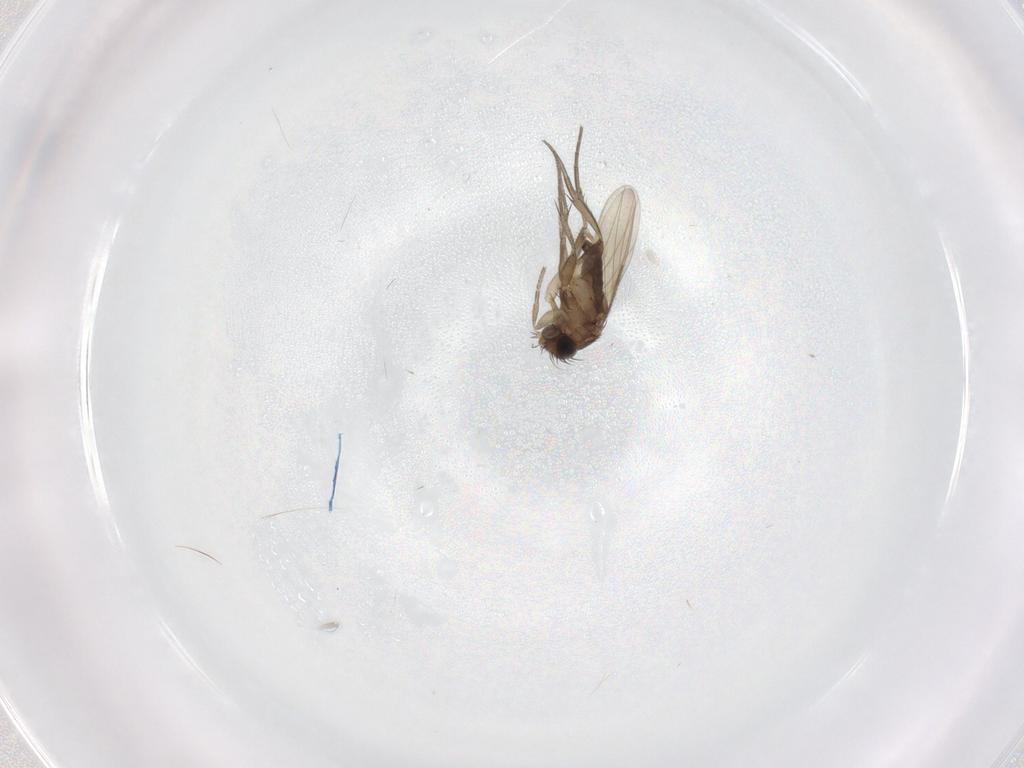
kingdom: Animalia
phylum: Arthropoda
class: Insecta
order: Diptera
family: Phoridae
